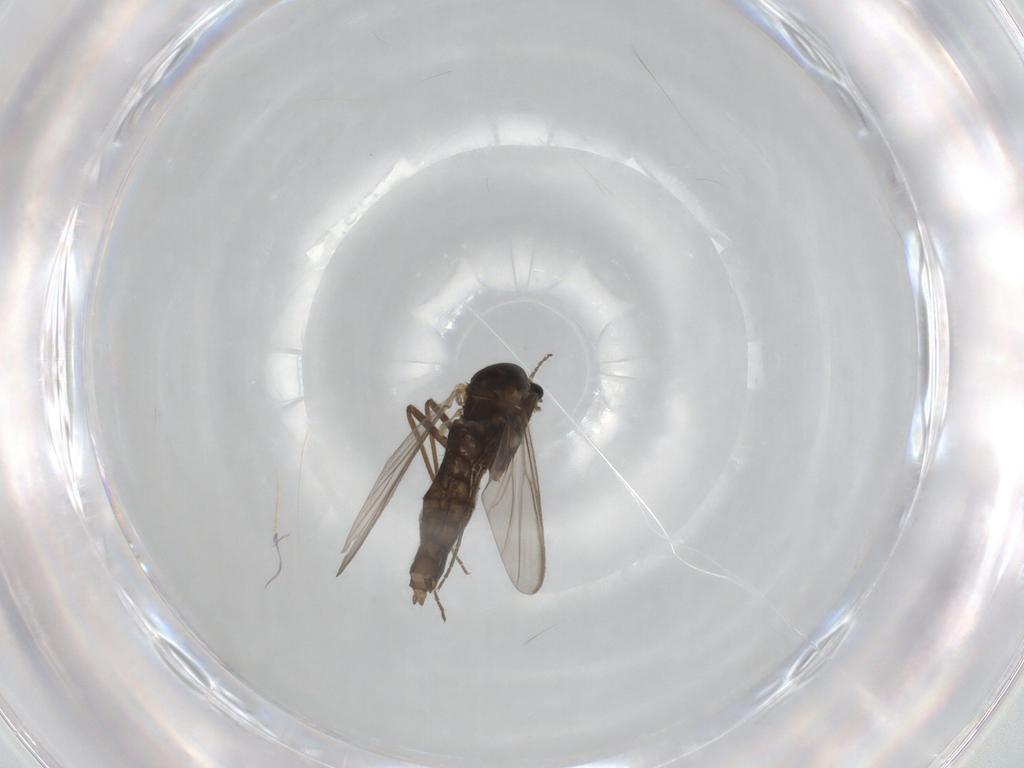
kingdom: Animalia
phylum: Arthropoda
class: Insecta
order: Diptera
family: Chironomidae
